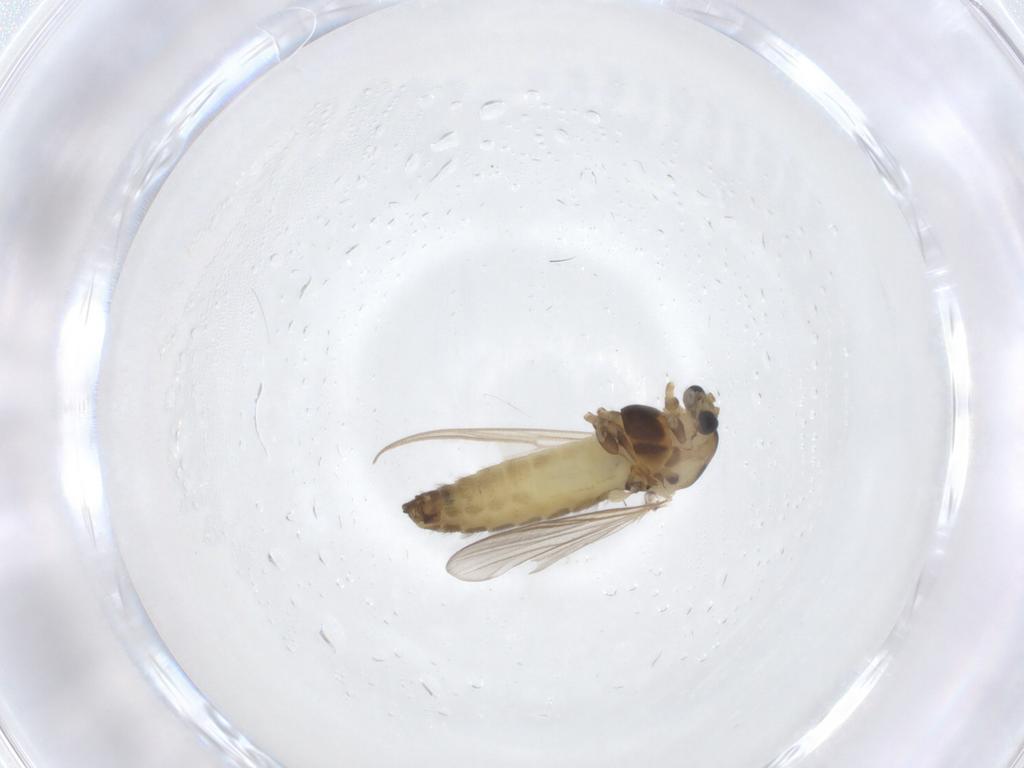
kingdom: Animalia
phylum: Arthropoda
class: Insecta
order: Diptera
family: Chironomidae
